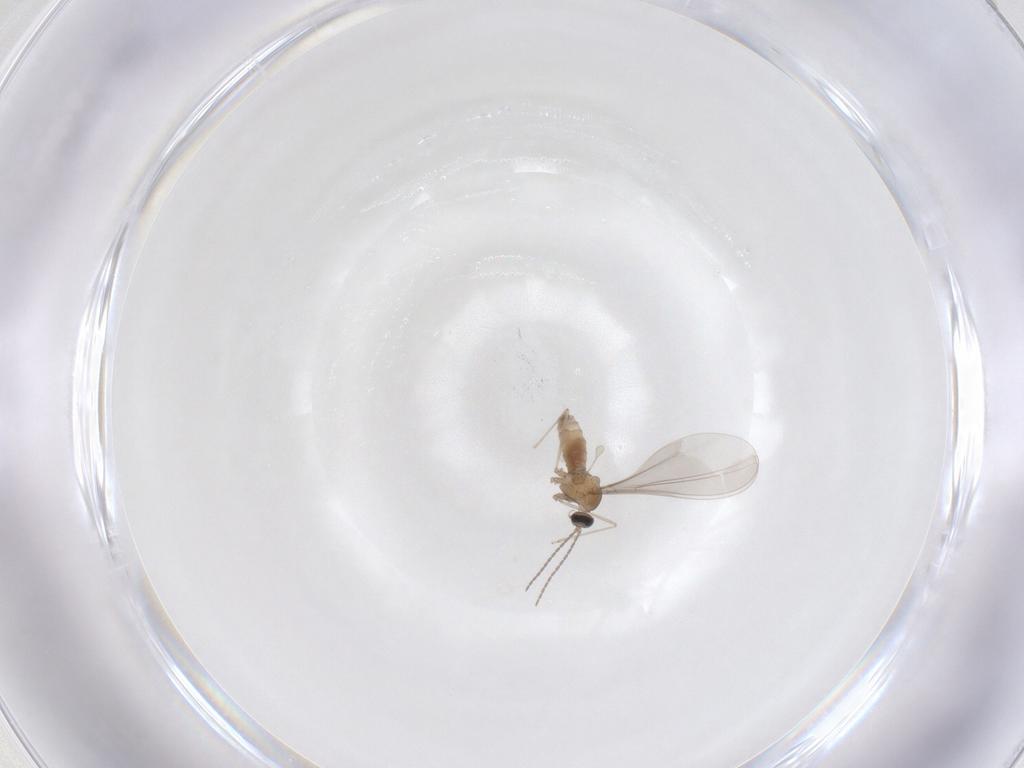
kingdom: Animalia
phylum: Arthropoda
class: Insecta
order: Diptera
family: Cecidomyiidae
